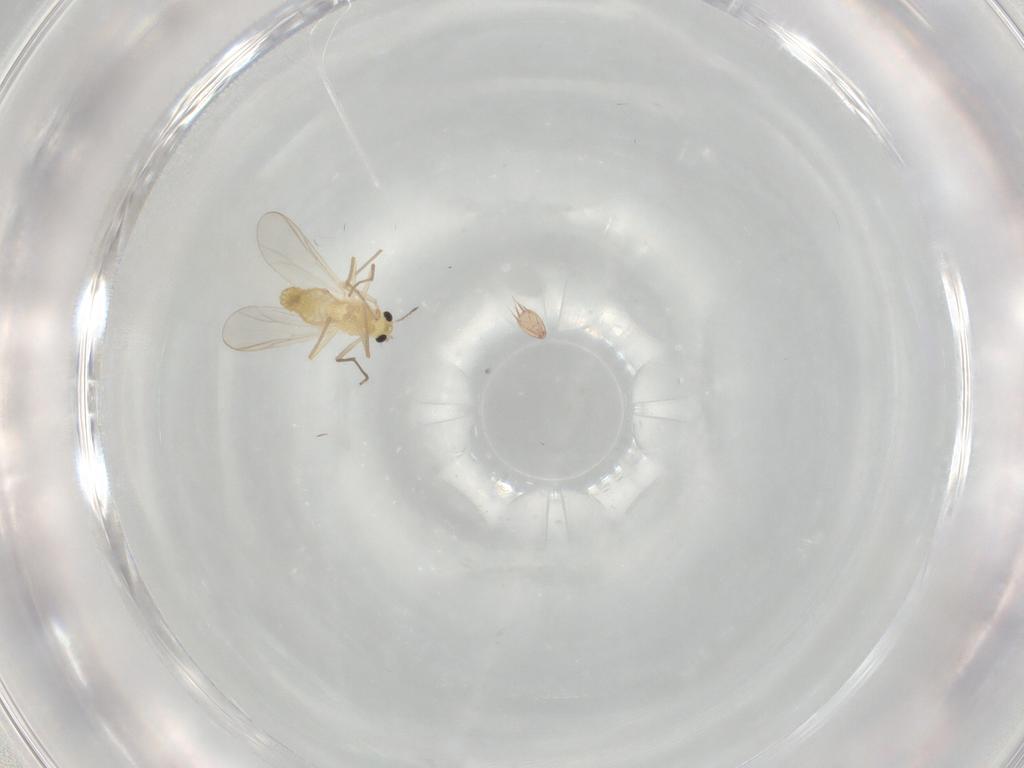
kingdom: Animalia
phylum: Arthropoda
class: Insecta
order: Diptera
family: Chironomidae
